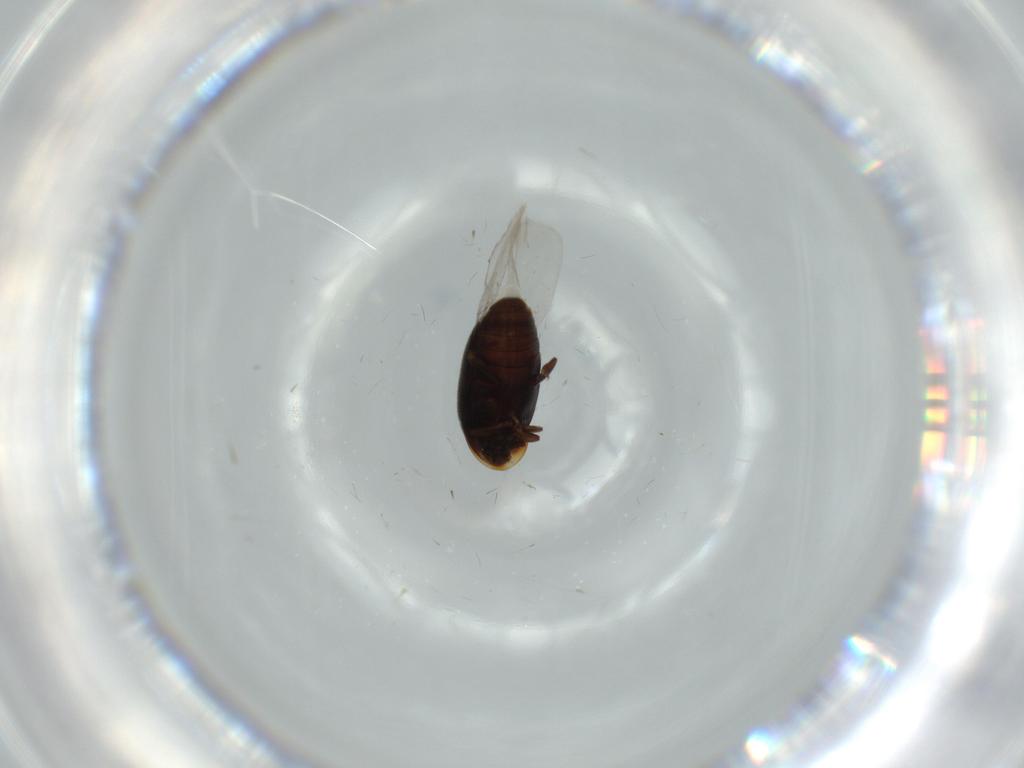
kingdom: Animalia
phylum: Arthropoda
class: Insecta
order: Coleoptera
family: Corylophidae
